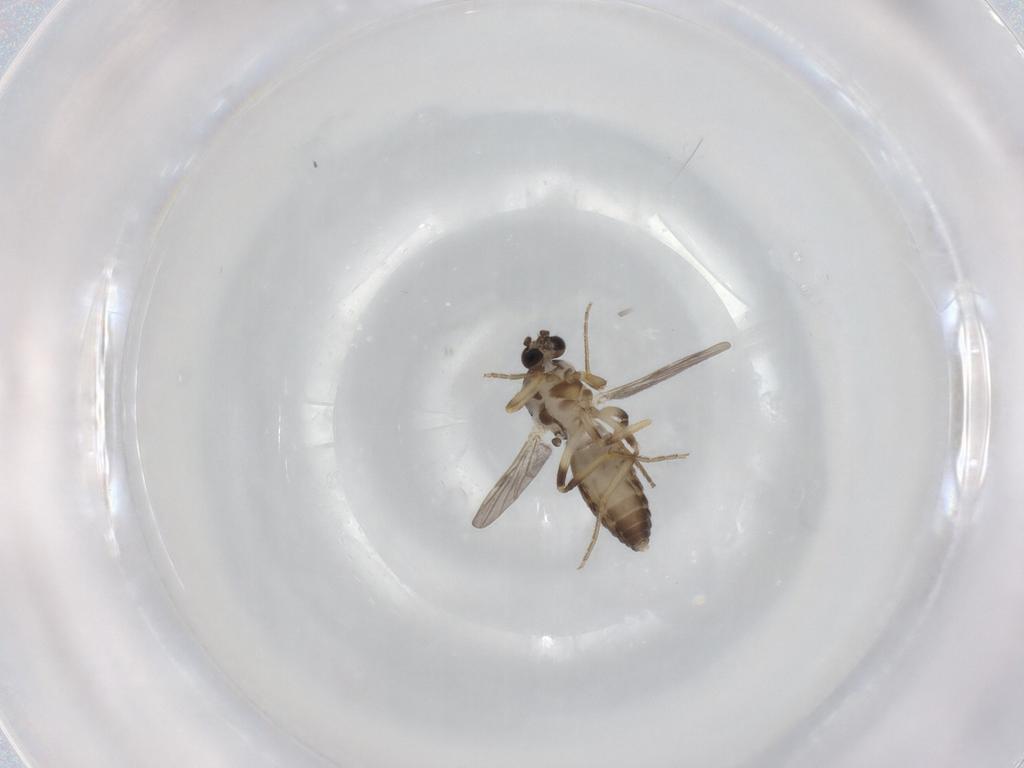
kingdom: Animalia
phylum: Arthropoda
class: Insecta
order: Diptera
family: Ceratopogonidae
